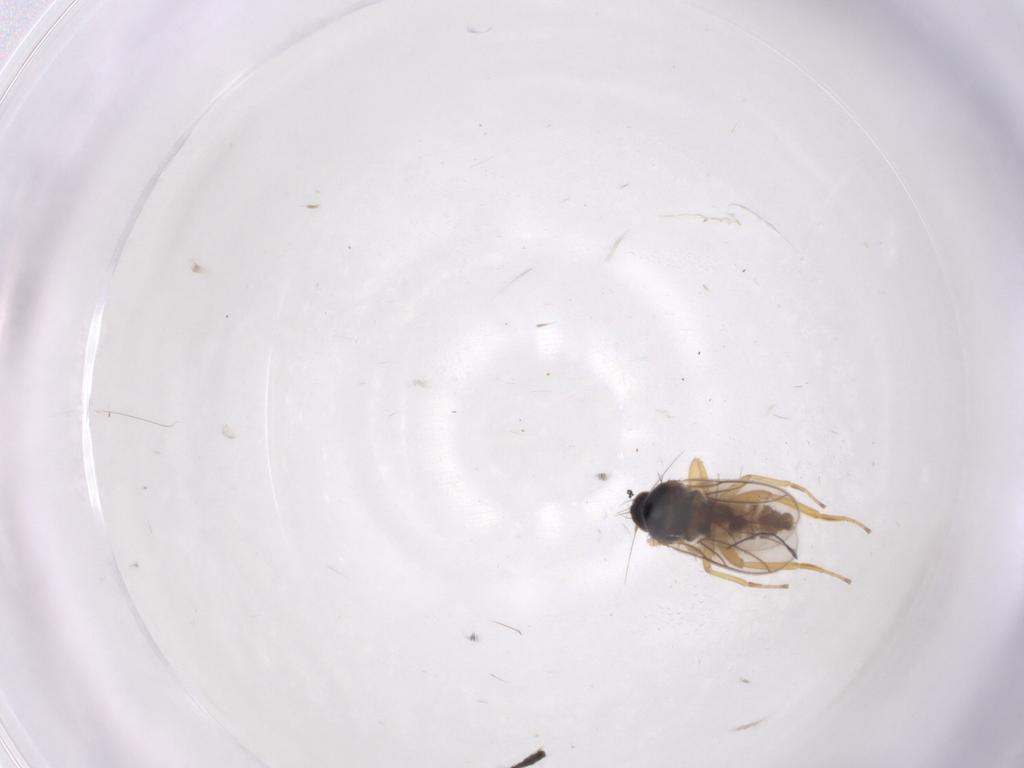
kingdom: Animalia
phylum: Arthropoda
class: Insecta
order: Diptera
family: Hybotidae
